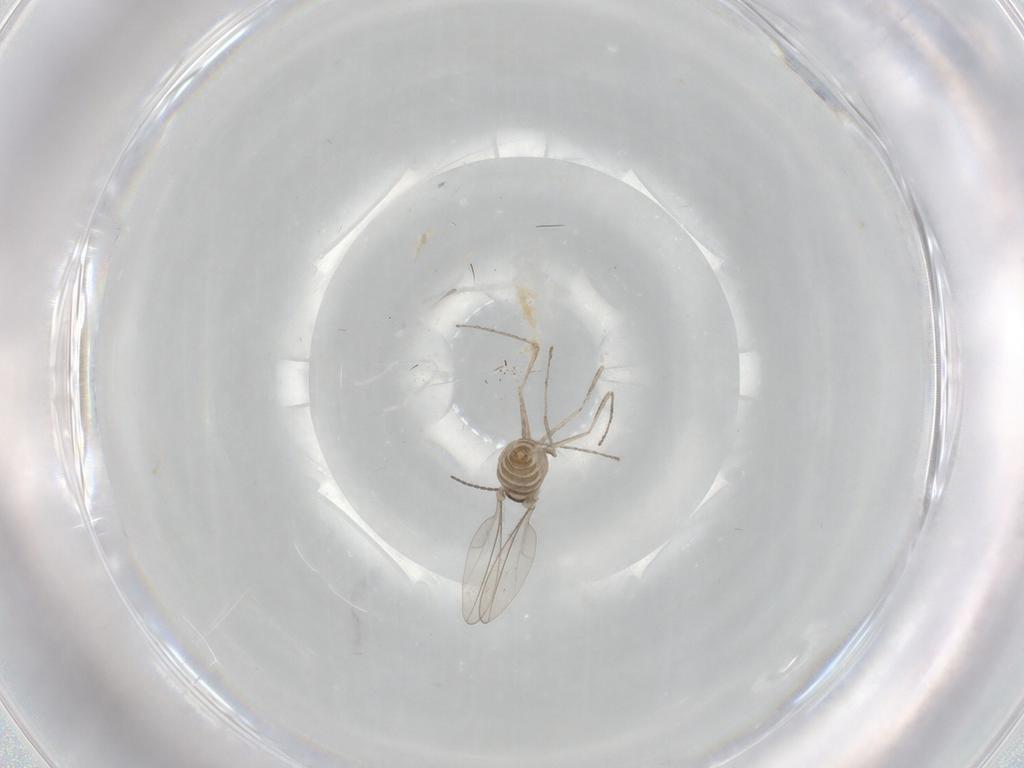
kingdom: Animalia
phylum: Arthropoda
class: Insecta
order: Diptera
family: Cecidomyiidae
